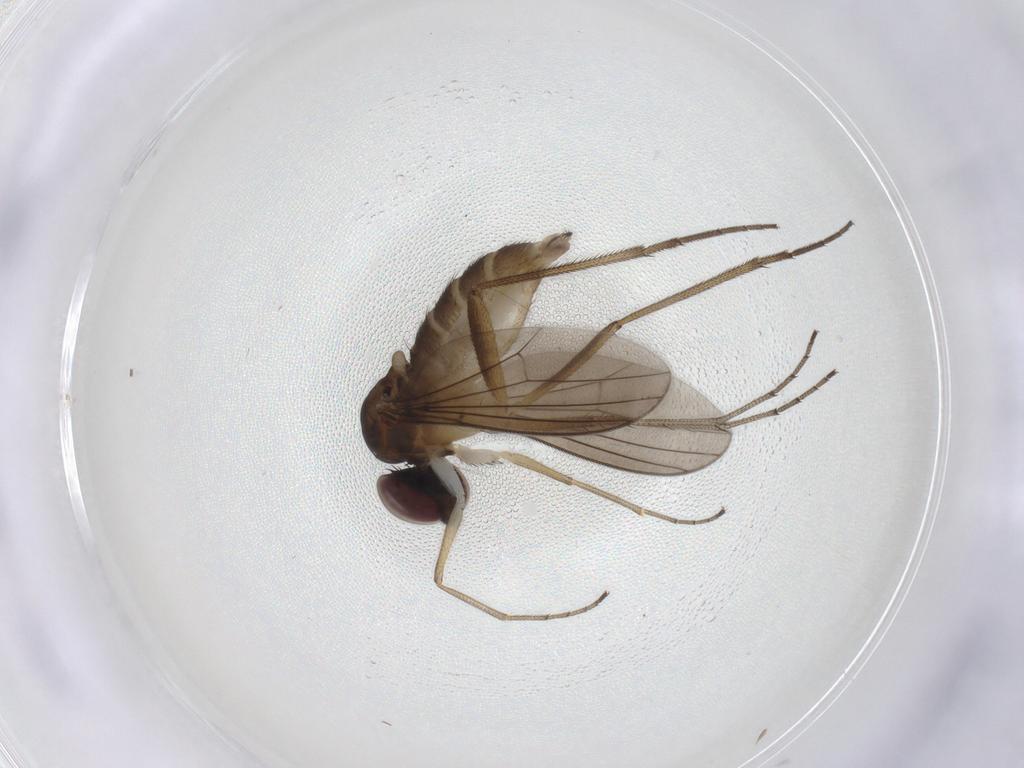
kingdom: Animalia
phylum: Arthropoda
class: Insecta
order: Diptera
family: Dolichopodidae
